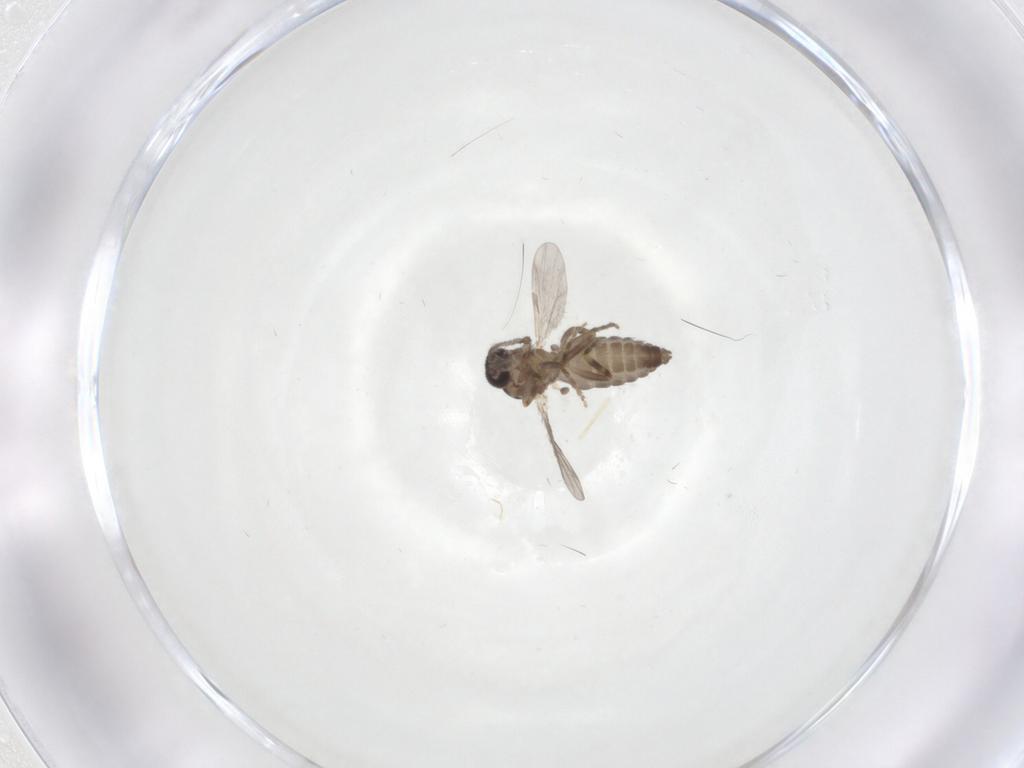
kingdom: Animalia
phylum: Arthropoda
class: Insecta
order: Diptera
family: Ceratopogonidae
